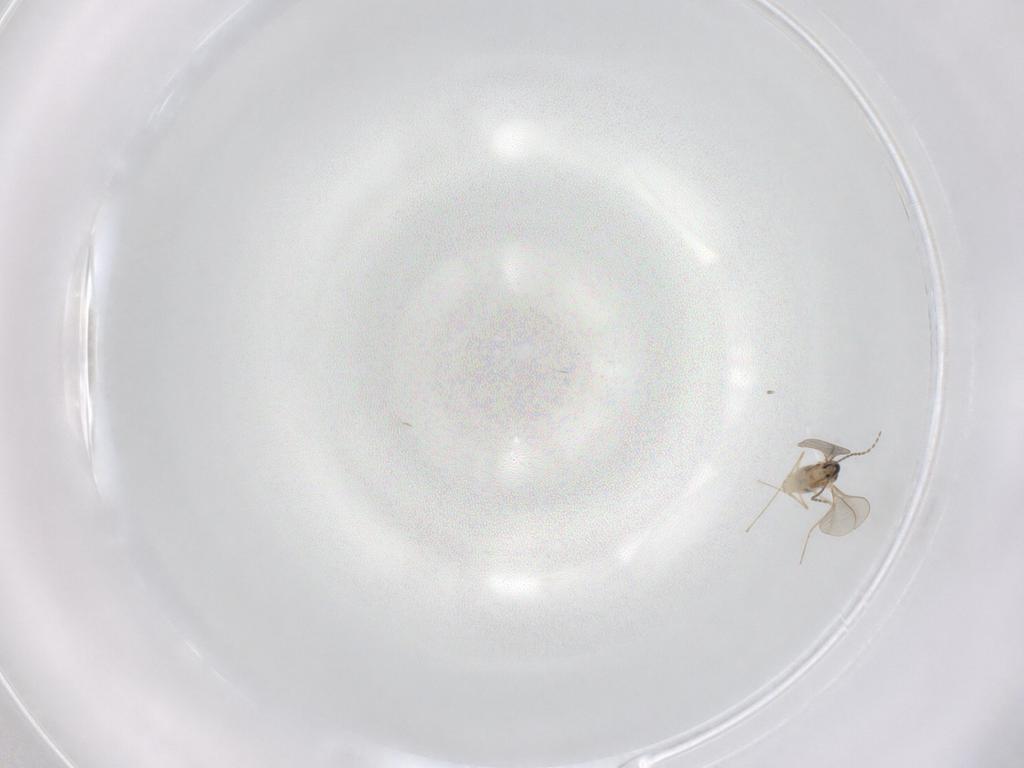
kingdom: Animalia
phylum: Arthropoda
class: Insecta
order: Diptera
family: Cecidomyiidae
